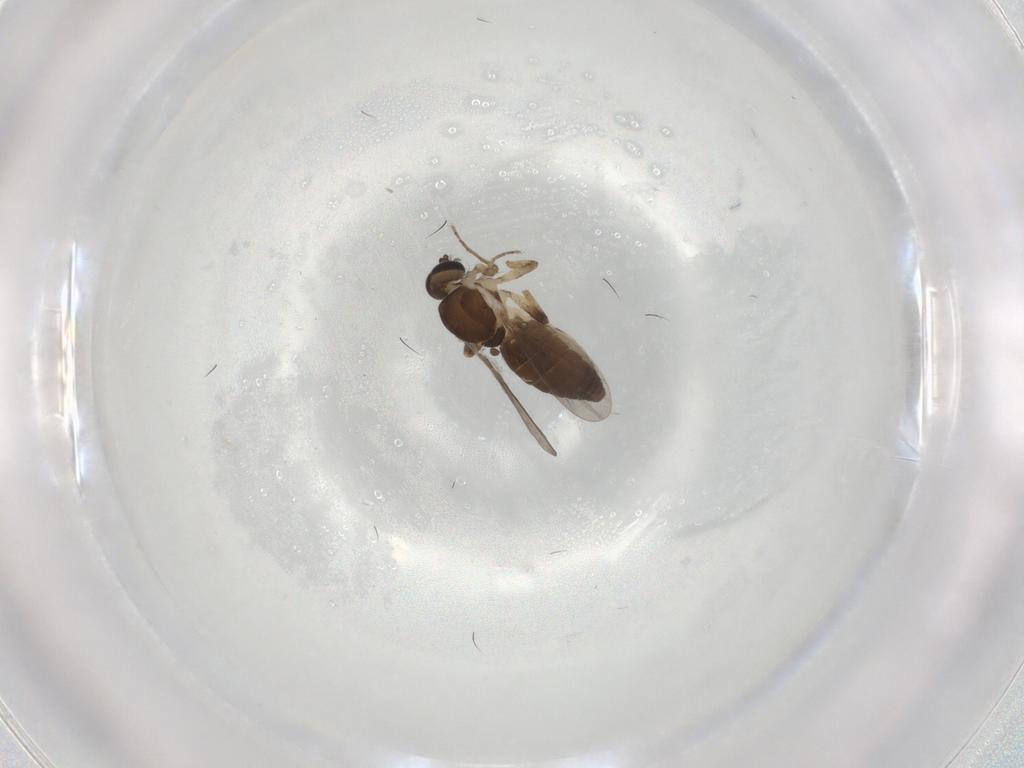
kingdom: Animalia
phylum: Arthropoda
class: Insecta
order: Diptera
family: Ceratopogonidae
